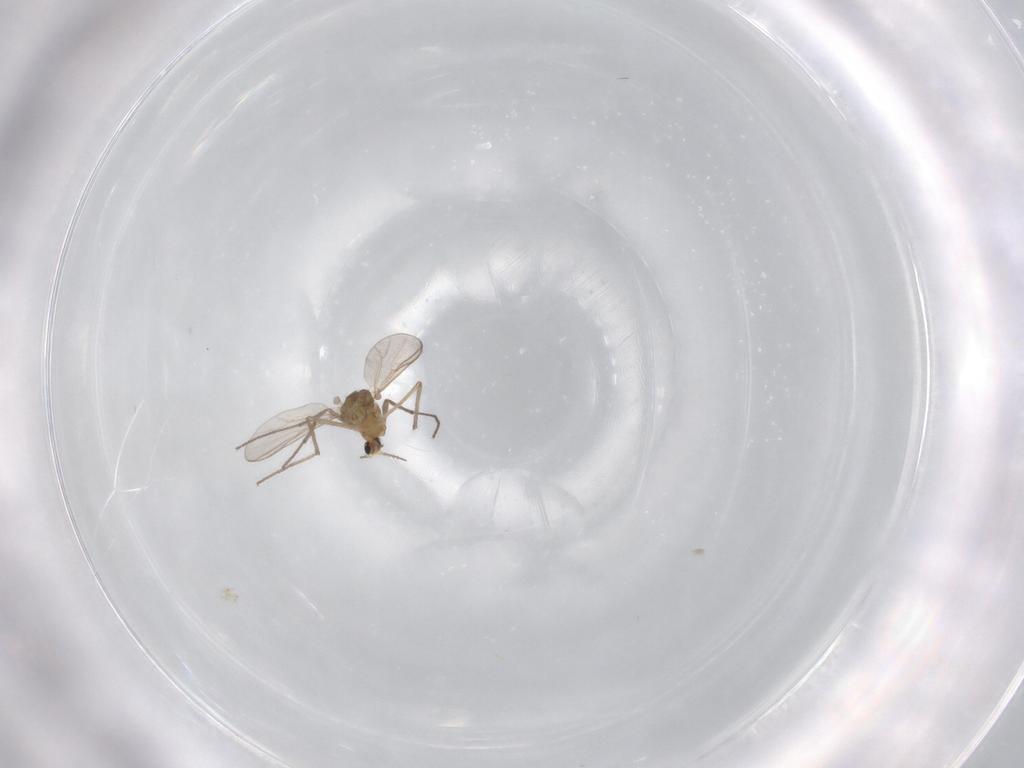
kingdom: Animalia
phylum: Arthropoda
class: Insecta
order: Diptera
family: Chironomidae
